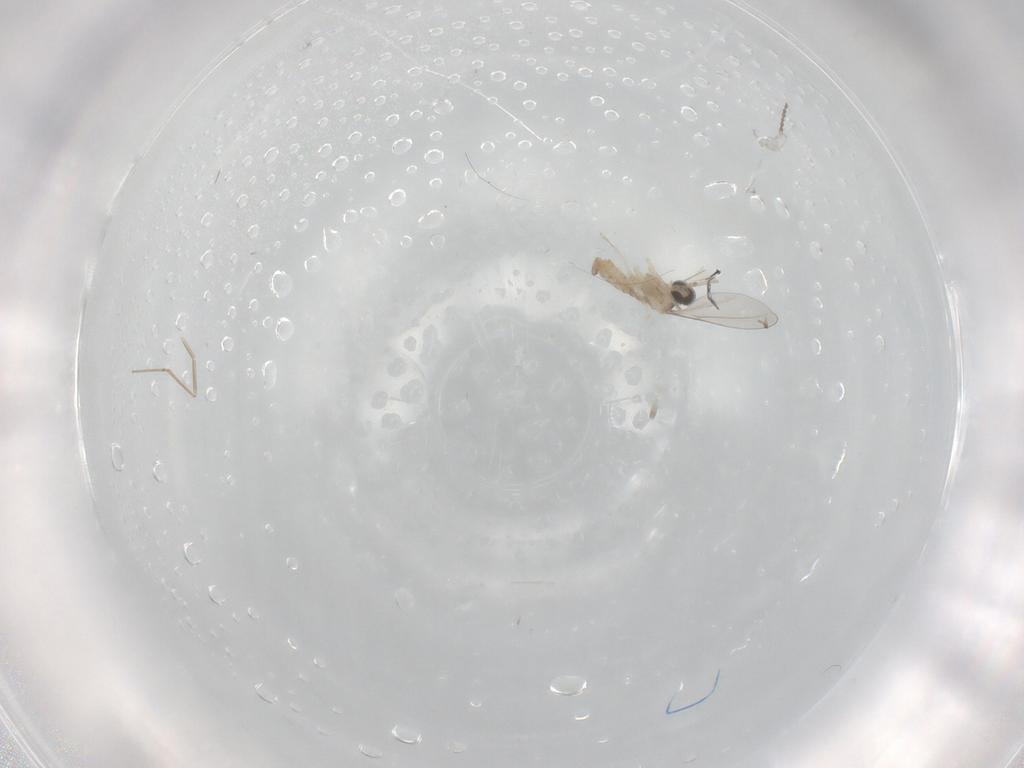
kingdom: Animalia
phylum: Arthropoda
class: Insecta
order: Diptera
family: Cecidomyiidae
